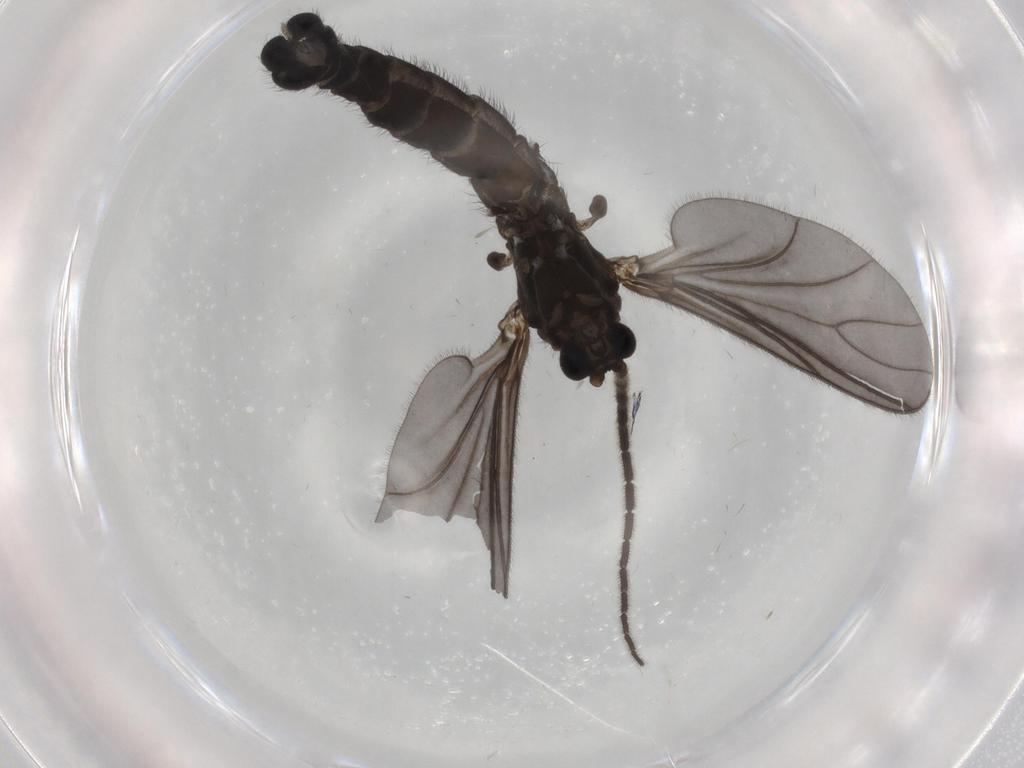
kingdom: Animalia
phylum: Arthropoda
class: Insecta
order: Diptera
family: Sciaridae
